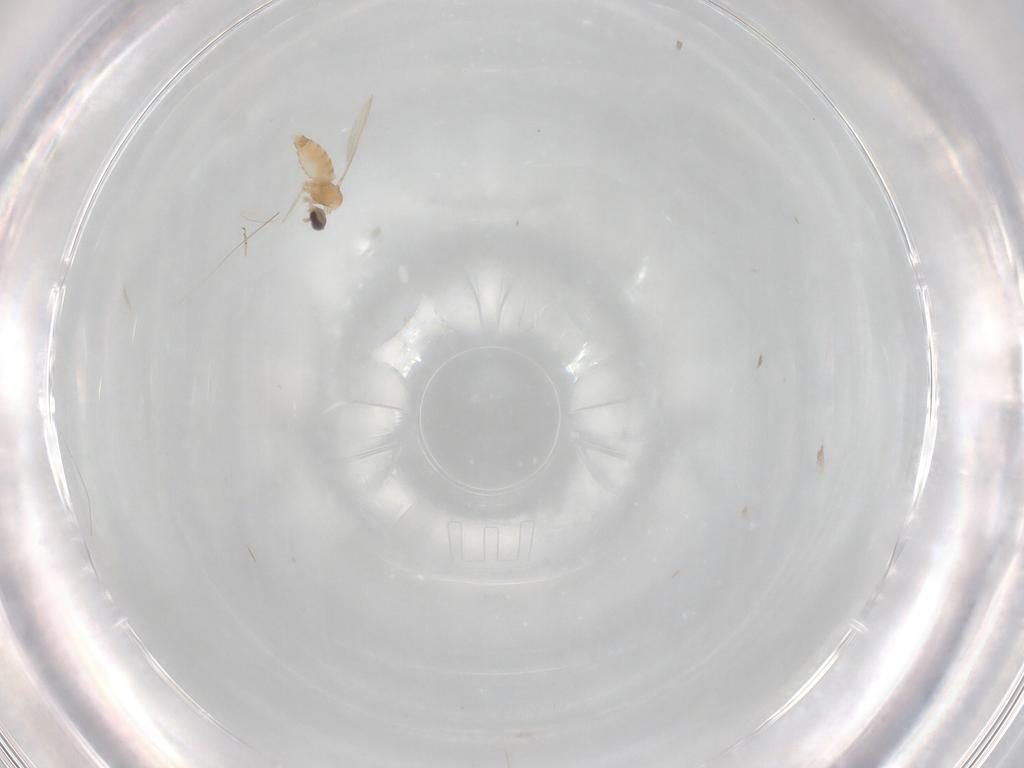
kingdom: Animalia
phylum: Arthropoda
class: Insecta
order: Diptera
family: Cecidomyiidae
